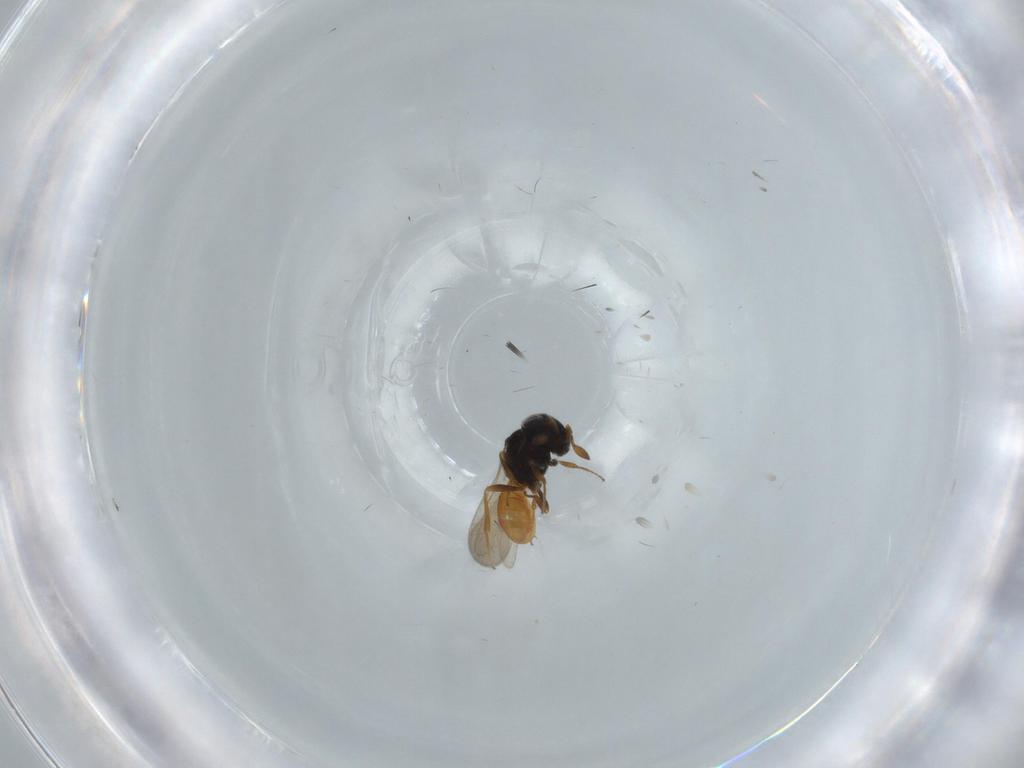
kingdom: Animalia
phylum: Arthropoda
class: Insecta
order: Hymenoptera
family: Scelionidae
